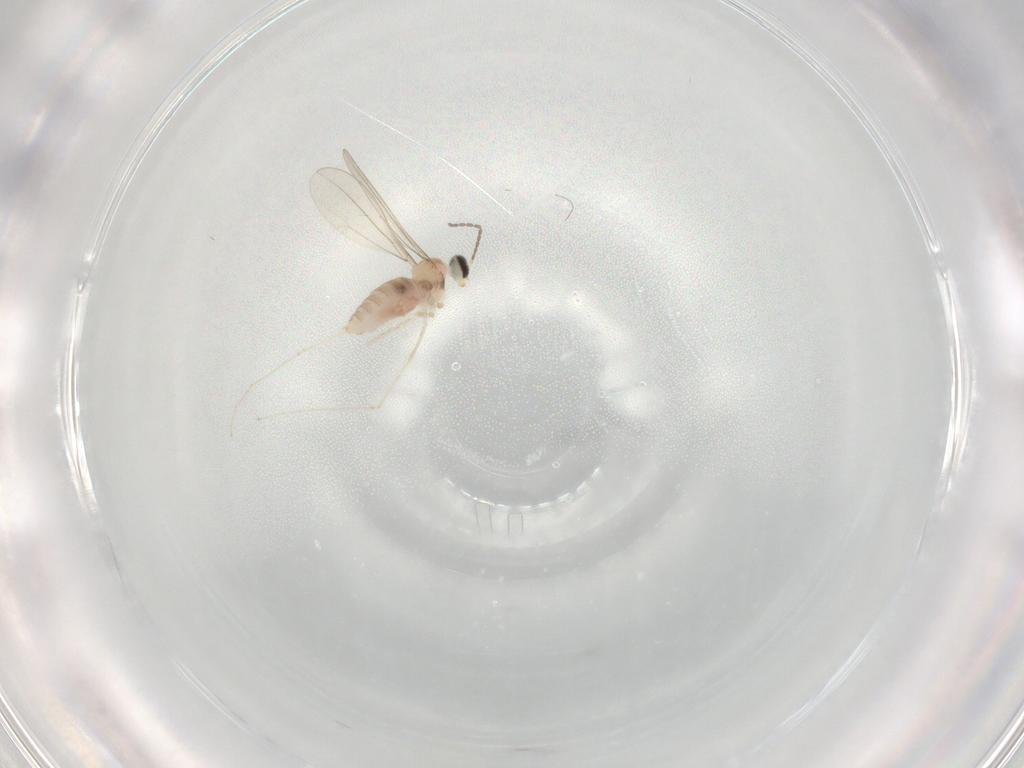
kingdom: Animalia
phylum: Arthropoda
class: Insecta
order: Diptera
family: Cecidomyiidae
